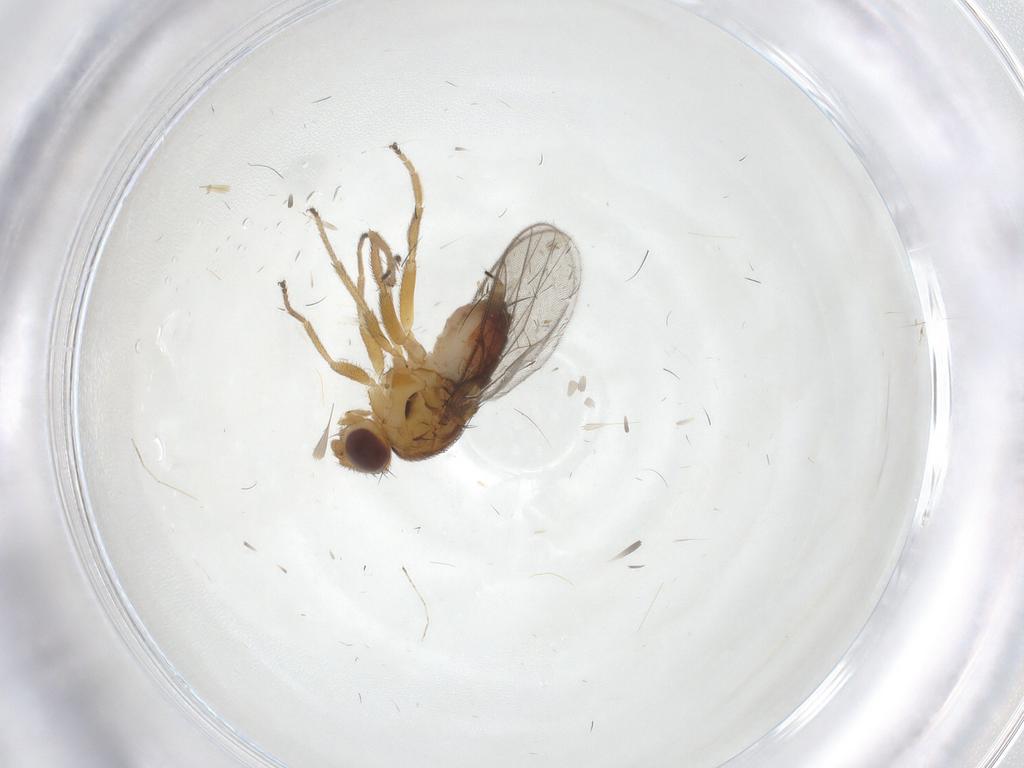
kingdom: Animalia
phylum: Arthropoda
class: Insecta
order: Diptera
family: Chloropidae
